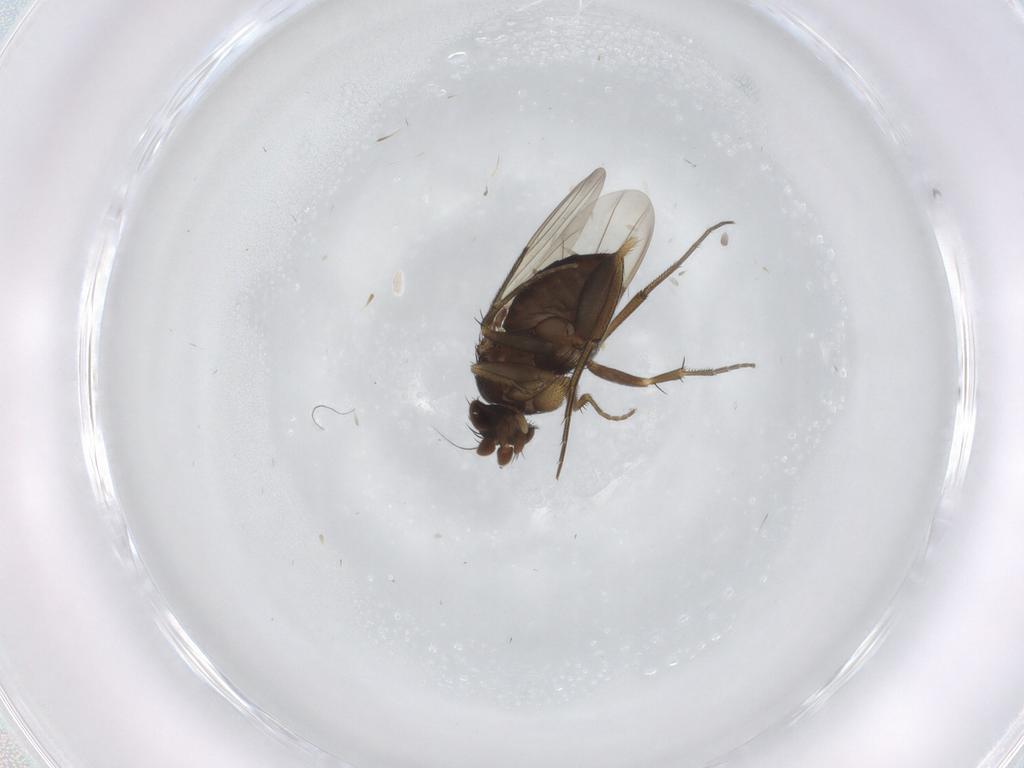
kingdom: Animalia
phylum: Arthropoda
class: Insecta
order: Diptera
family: Phoridae
